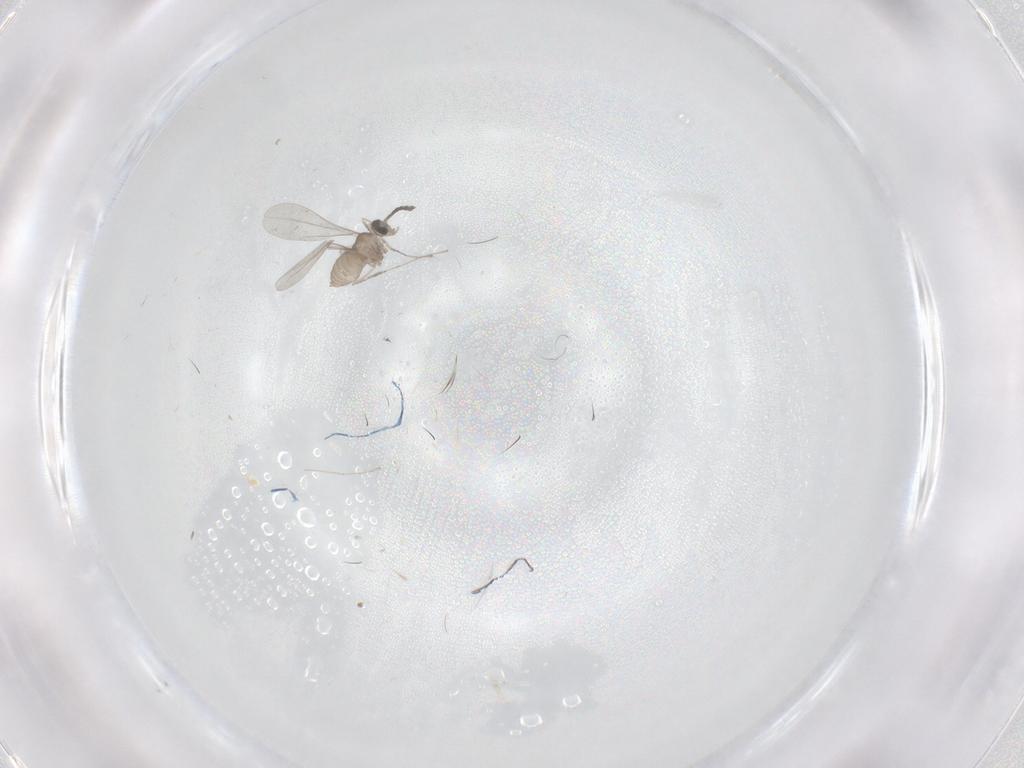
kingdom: Animalia
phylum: Arthropoda
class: Insecta
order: Diptera
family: Cecidomyiidae
